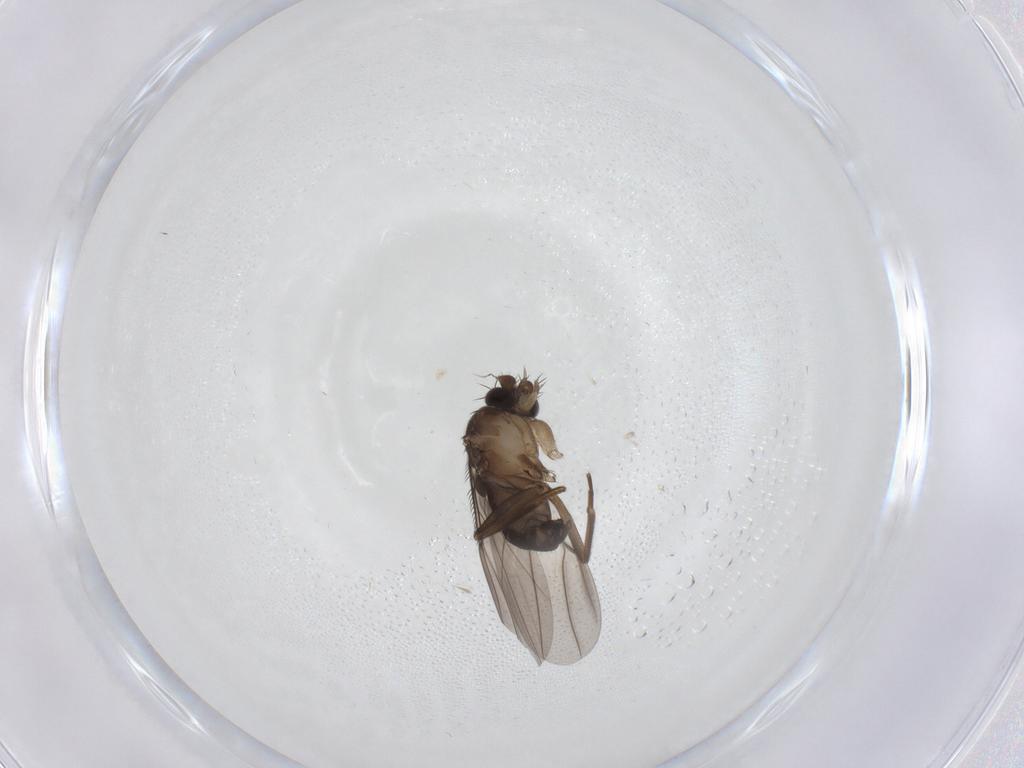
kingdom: Animalia
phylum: Arthropoda
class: Insecta
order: Diptera
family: Phoridae
